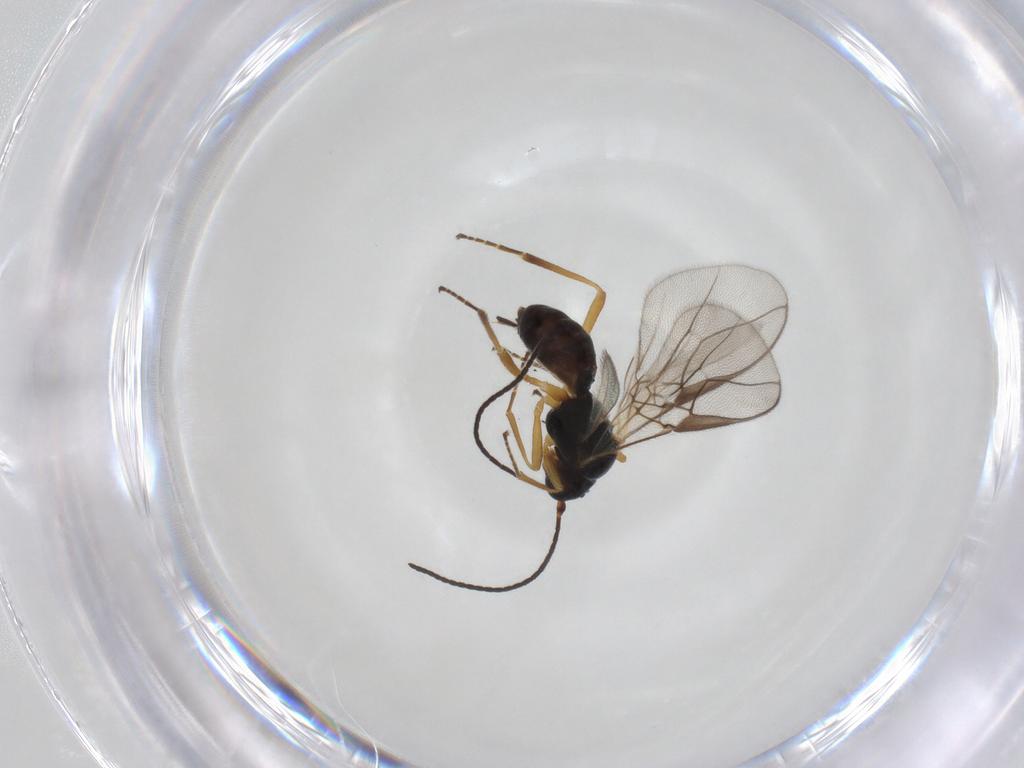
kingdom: Animalia
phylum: Arthropoda
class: Insecta
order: Hymenoptera
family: Braconidae
